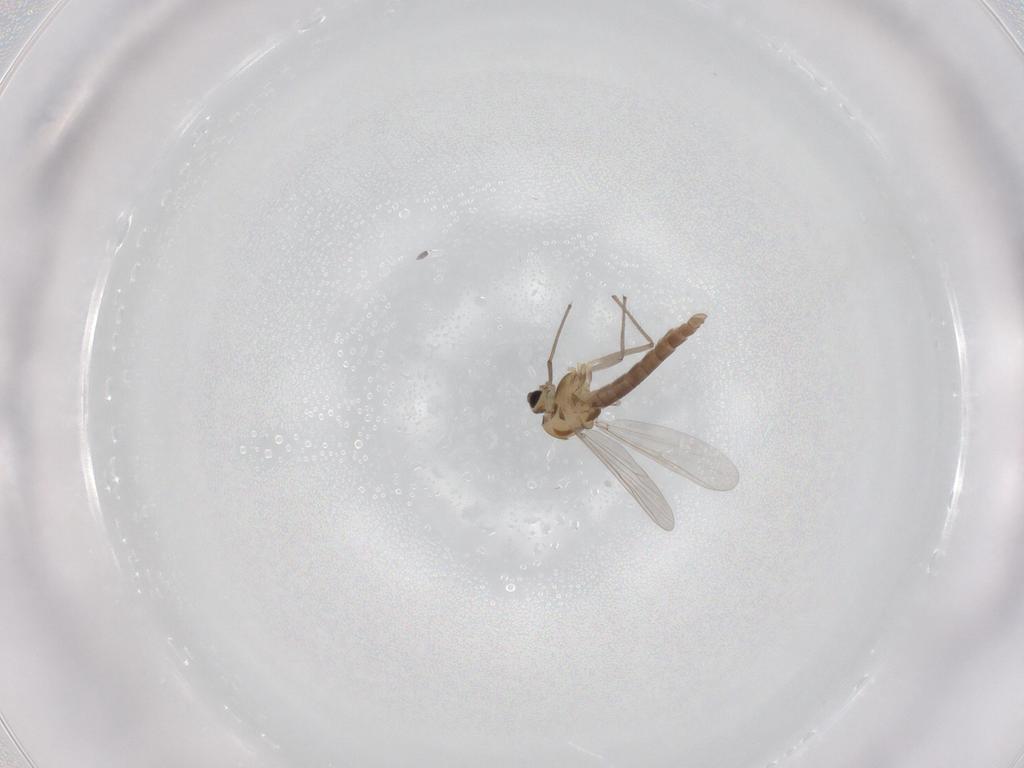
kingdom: Animalia
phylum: Arthropoda
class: Insecta
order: Diptera
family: Chironomidae
